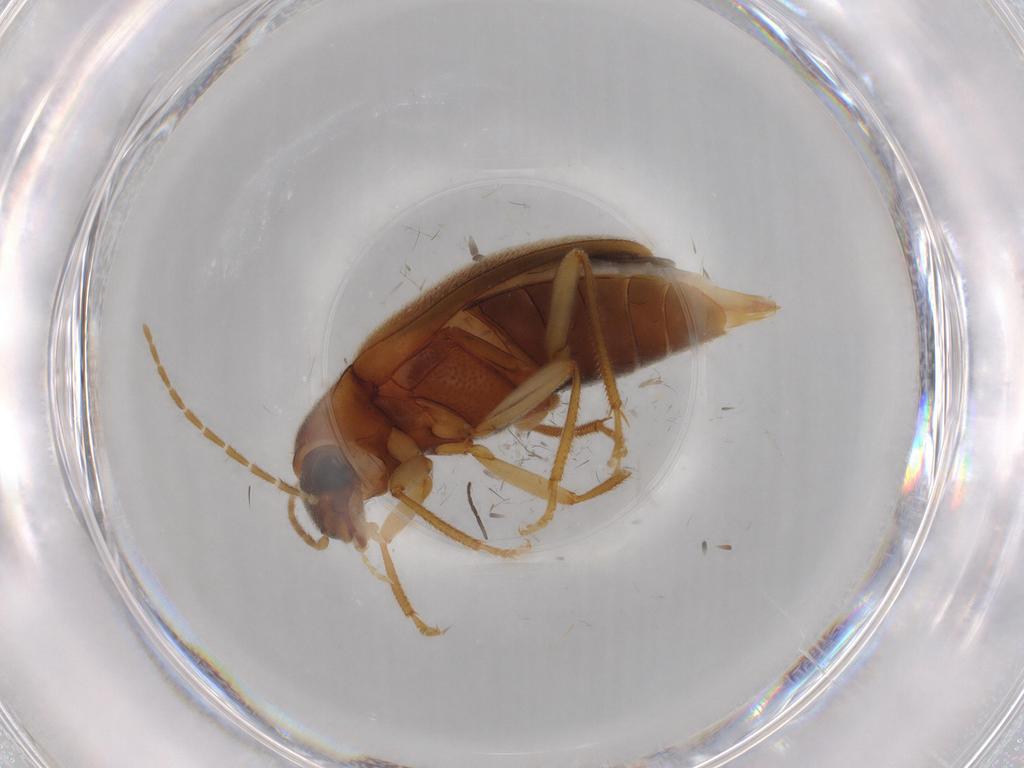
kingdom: Animalia
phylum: Arthropoda
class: Insecta
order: Coleoptera
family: Ptilodactylidae
